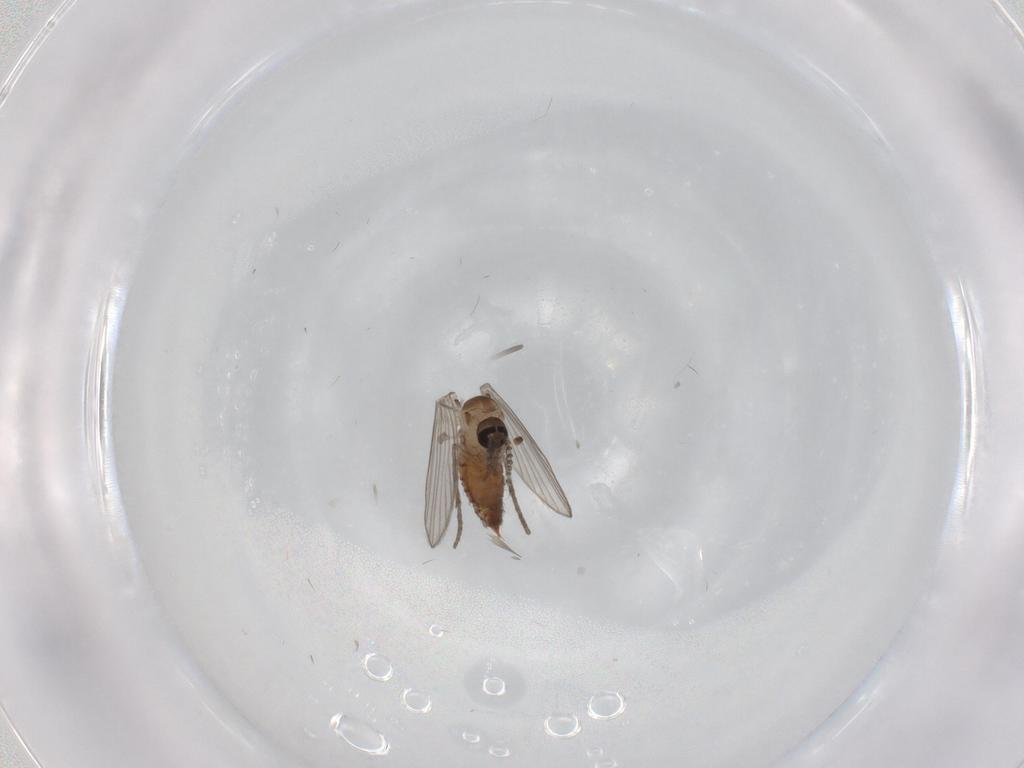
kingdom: Animalia
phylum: Arthropoda
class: Insecta
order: Diptera
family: Psychodidae
